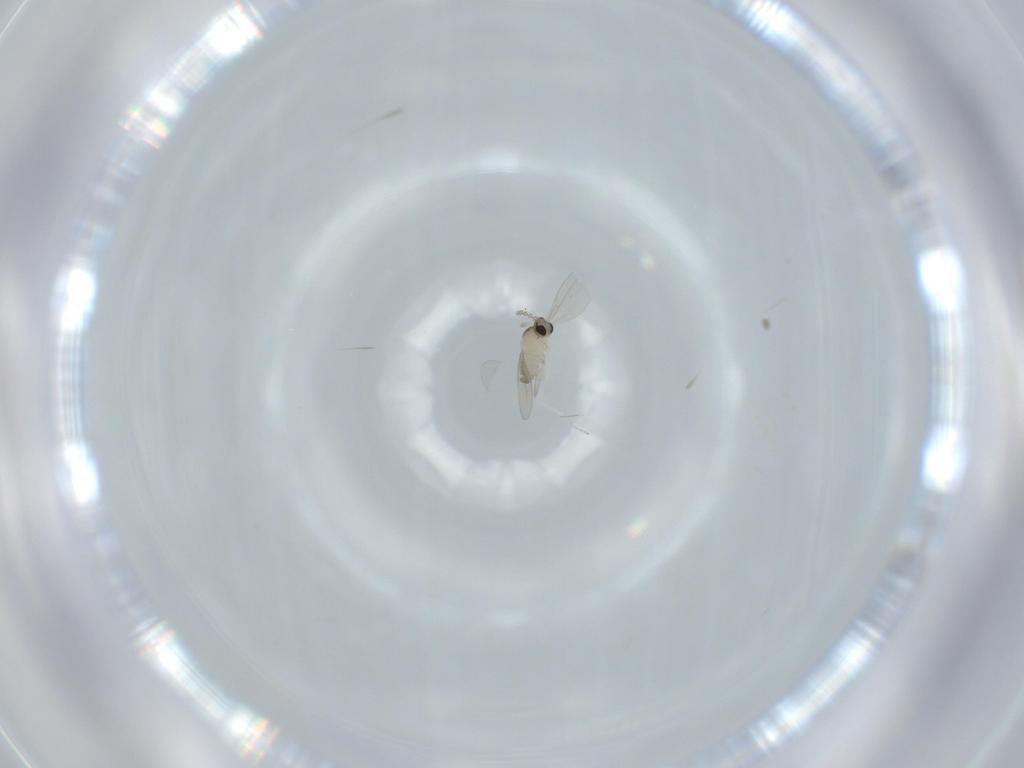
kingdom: Animalia
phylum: Arthropoda
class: Insecta
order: Diptera
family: Cecidomyiidae
